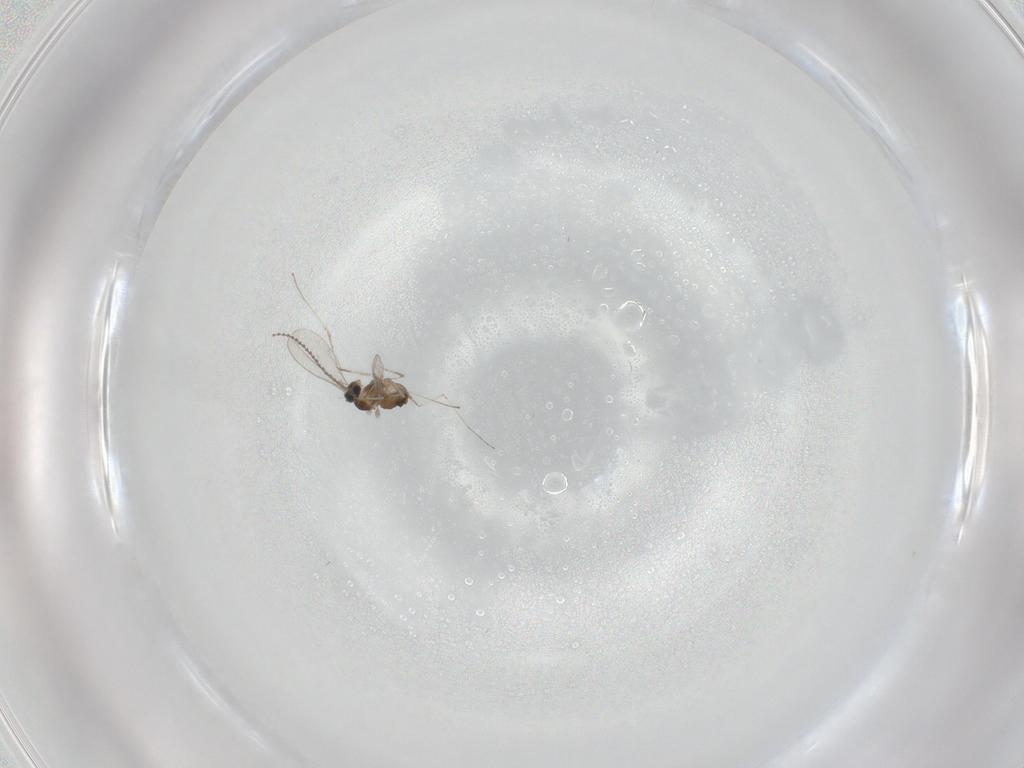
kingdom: Animalia
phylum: Arthropoda
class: Insecta
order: Diptera
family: Cecidomyiidae
